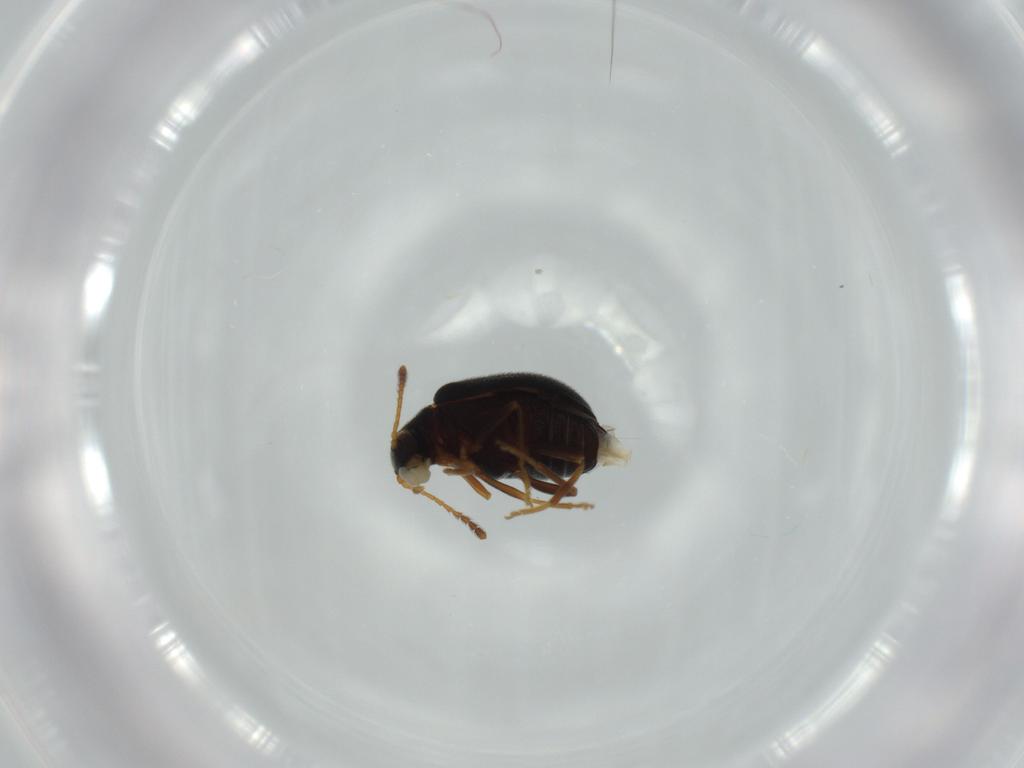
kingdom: Animalia
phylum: Arthropoda
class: Insecta
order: Coleoptera
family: Aderidae
